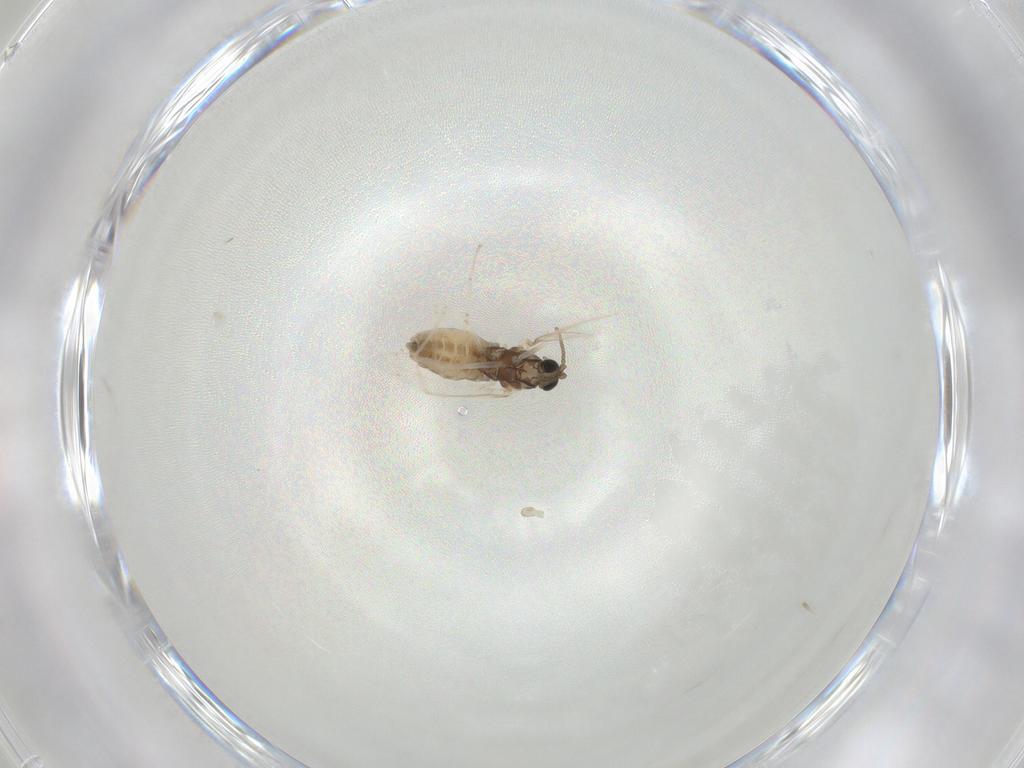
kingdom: Animalia
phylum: Arthropoda
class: Insecta
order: Diptera
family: Cecidomyiidae
